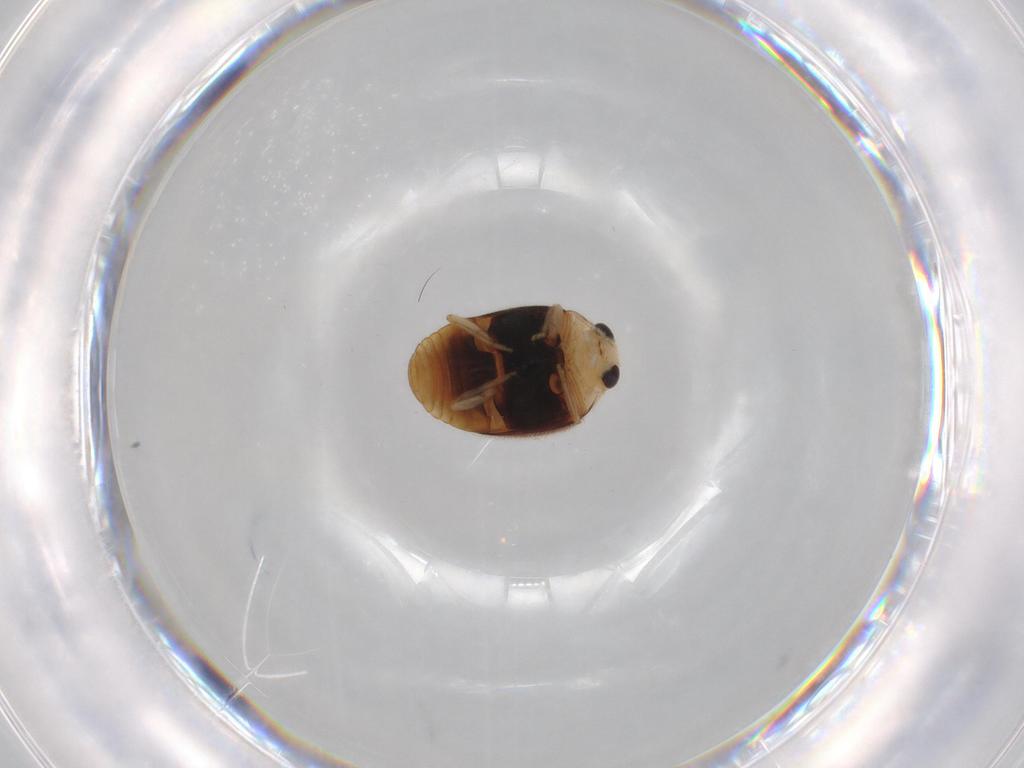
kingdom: Animalia
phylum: Arthropoda
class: Insecta
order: Coleoptera
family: Coccinellidae
